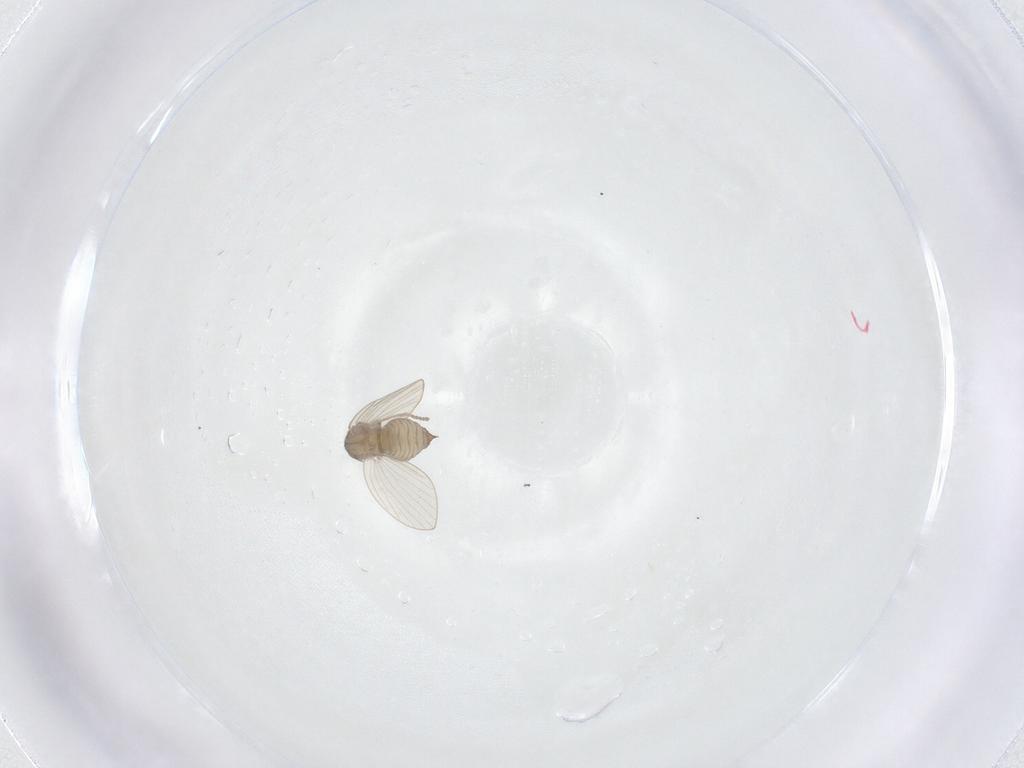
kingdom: Animalia
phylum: Arthropoda
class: Insecta
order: Diptera
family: Psychodidae
